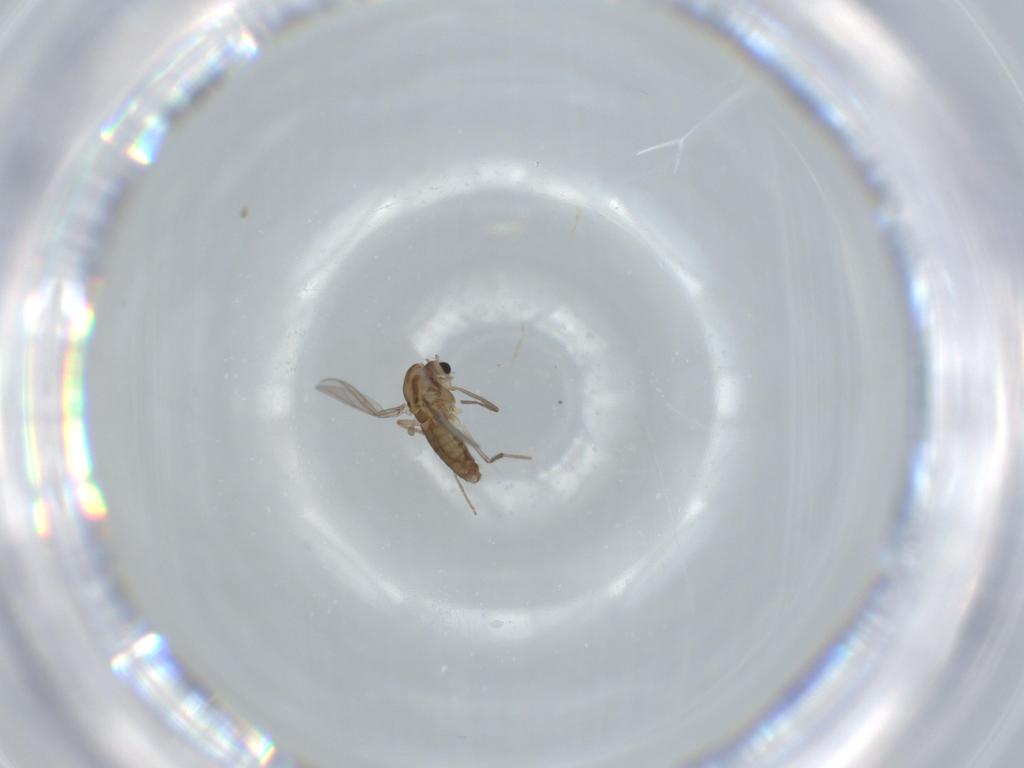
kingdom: Animalia
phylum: Arthropoda
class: Insecta
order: Diptera
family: Chironomidae
